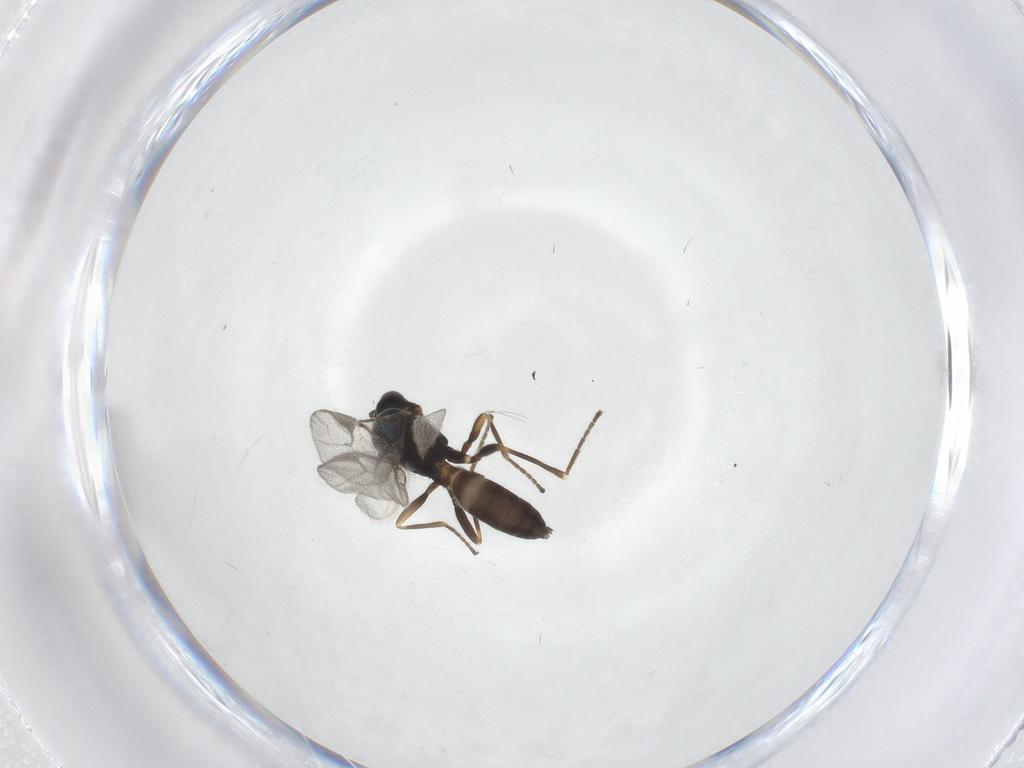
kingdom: Animalia
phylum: Arthropoda
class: Insecta
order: Hymenoptera
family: Braconidae
